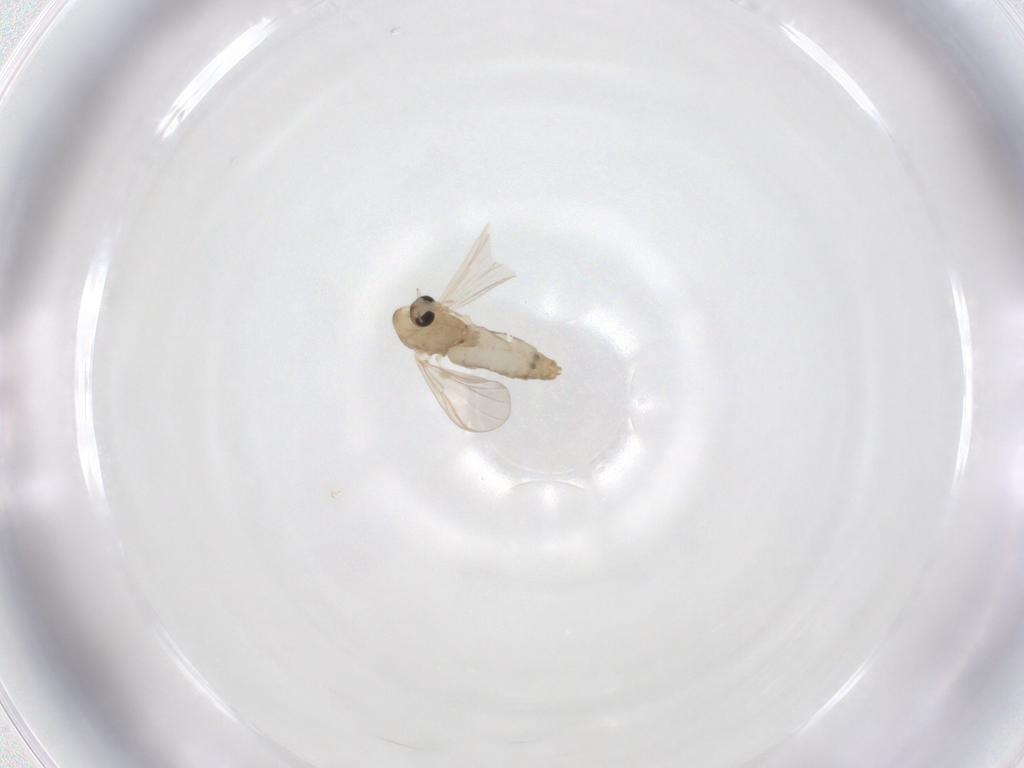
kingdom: Animalia
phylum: Arthropoda
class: Insecta
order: Diptera
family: Chironomidae
